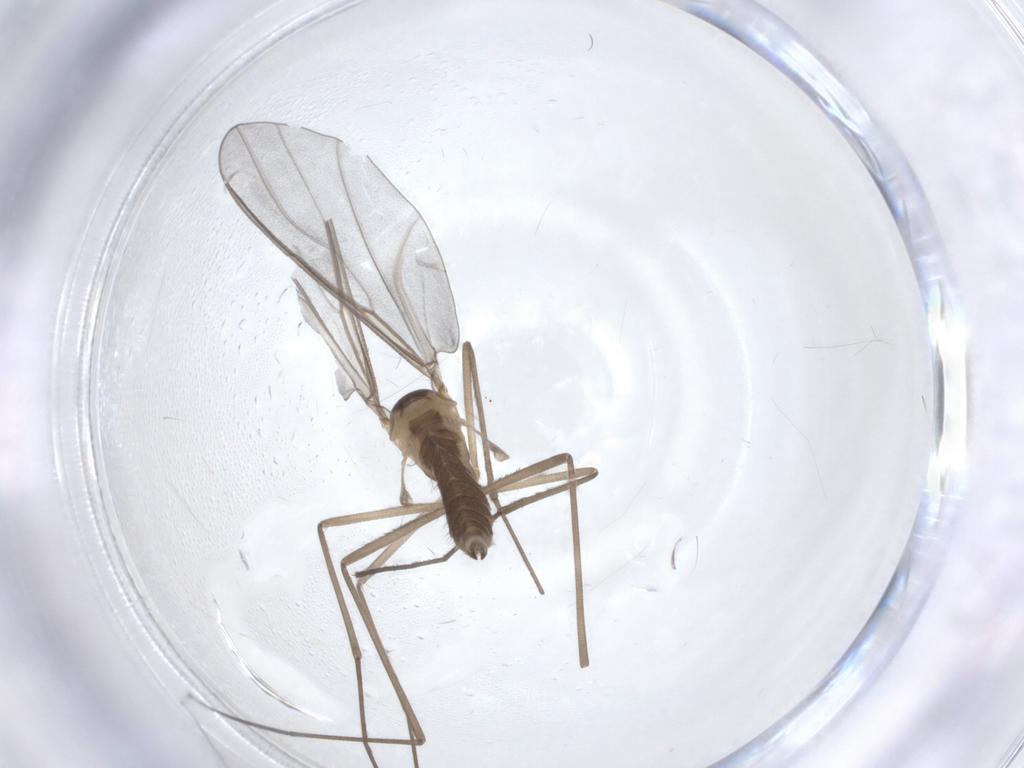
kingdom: Animalia
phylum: Arthropoda
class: Insecta
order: Diptera
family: Cecidomyiidae
